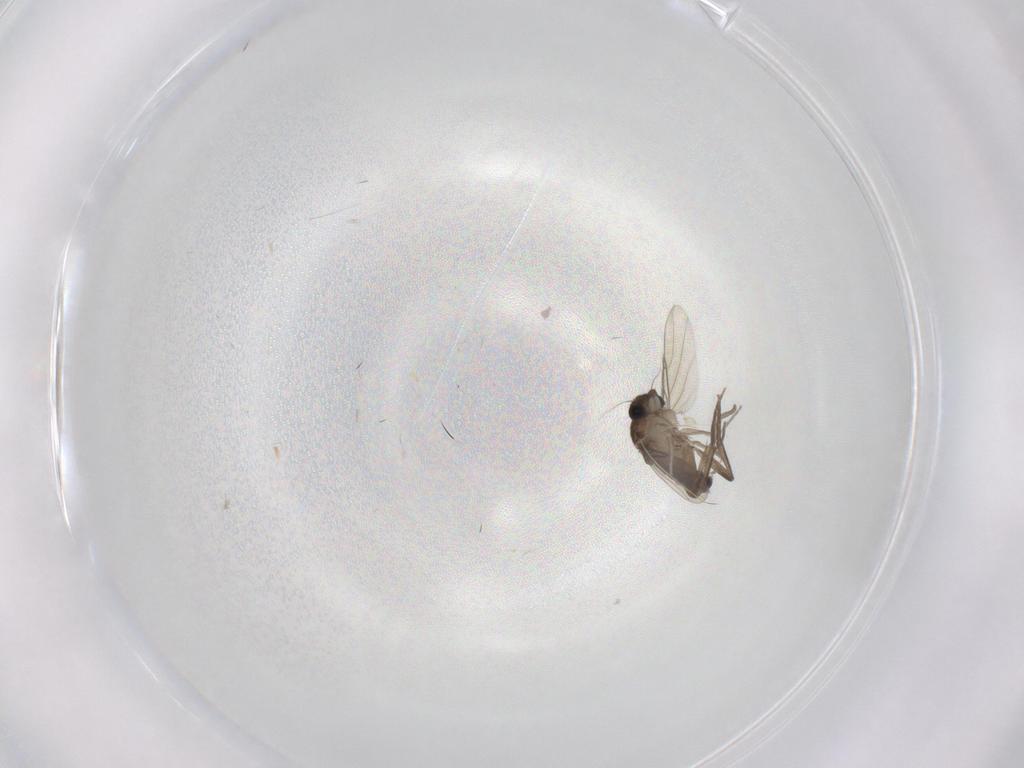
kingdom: Animalia
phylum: Arthropoda
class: Insecta
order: Diptera
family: Phoridae
